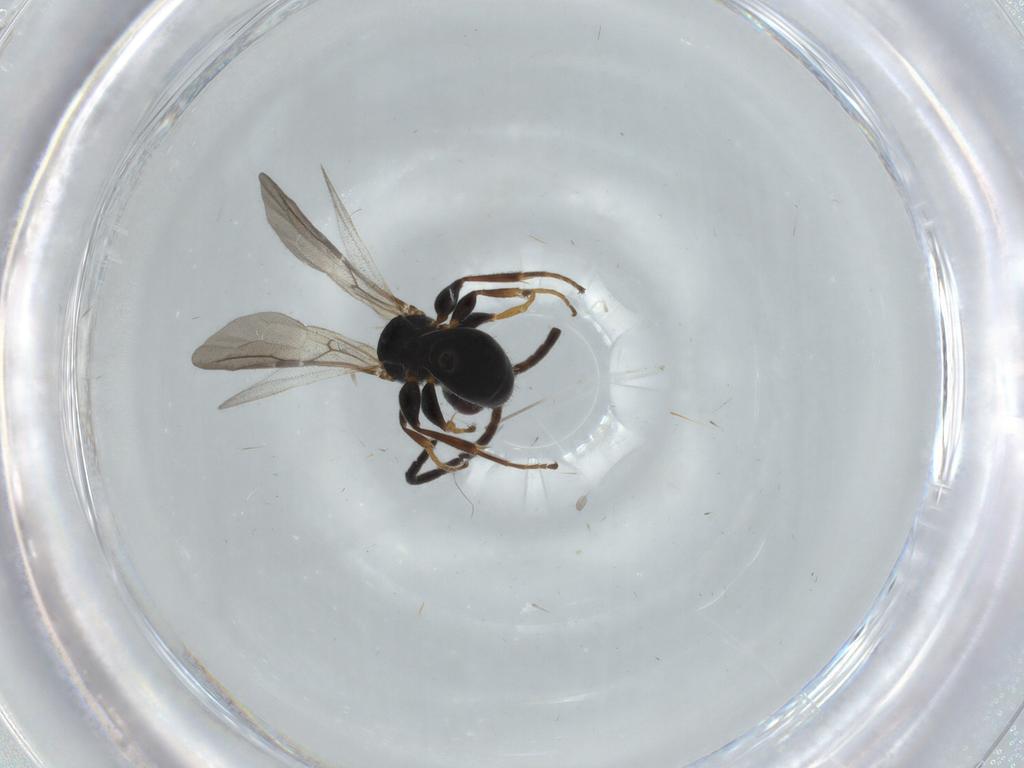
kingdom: Animalia
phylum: Arthropoda
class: Insecta
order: Hymenoptera
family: Bethylidae
